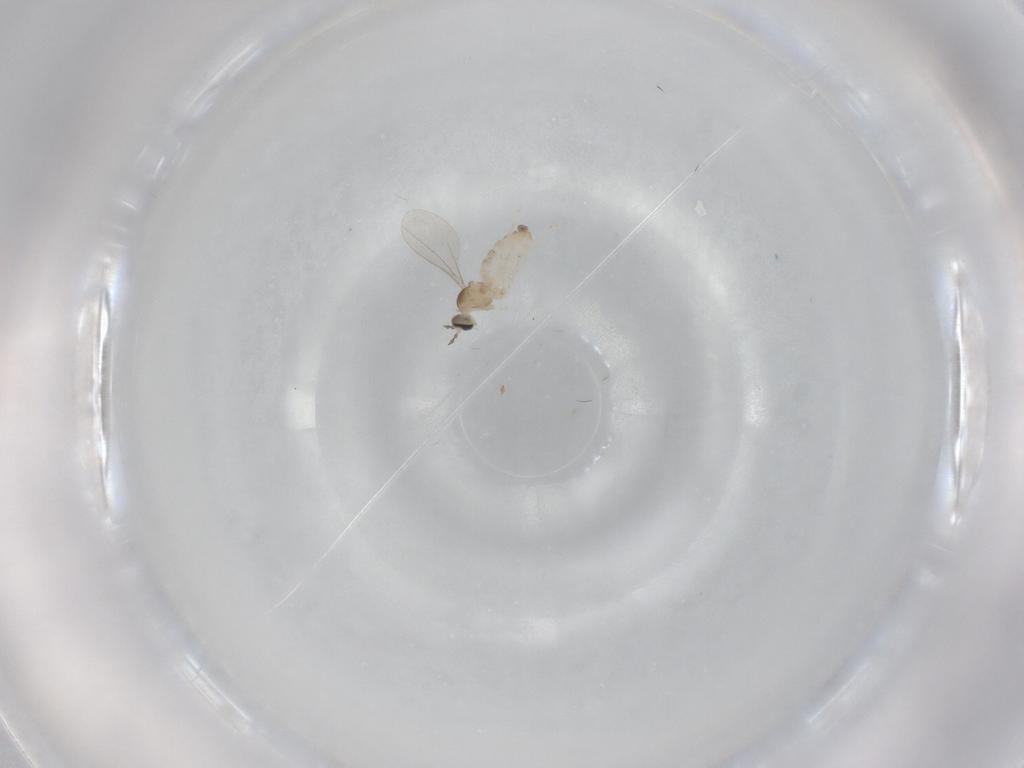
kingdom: Animalia
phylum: Arthropoda
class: Insecta
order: Diptera
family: Cecidomyiidae
